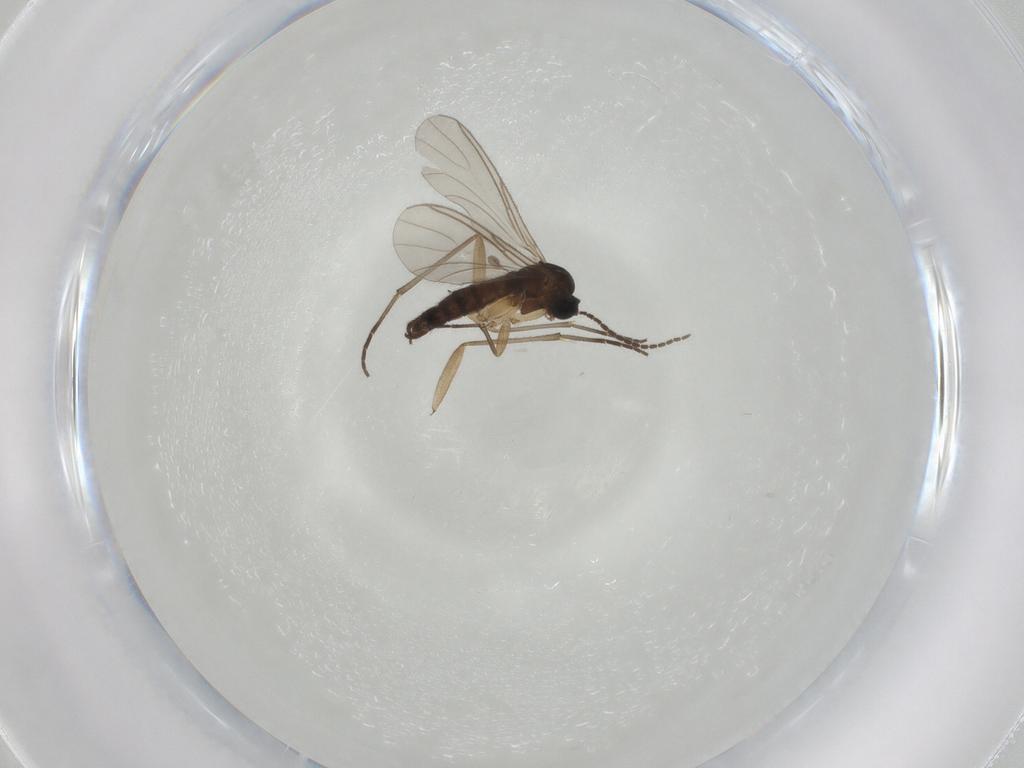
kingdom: Animalia
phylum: Arthropoda
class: Insecta
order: Diptera
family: Sciaridae
